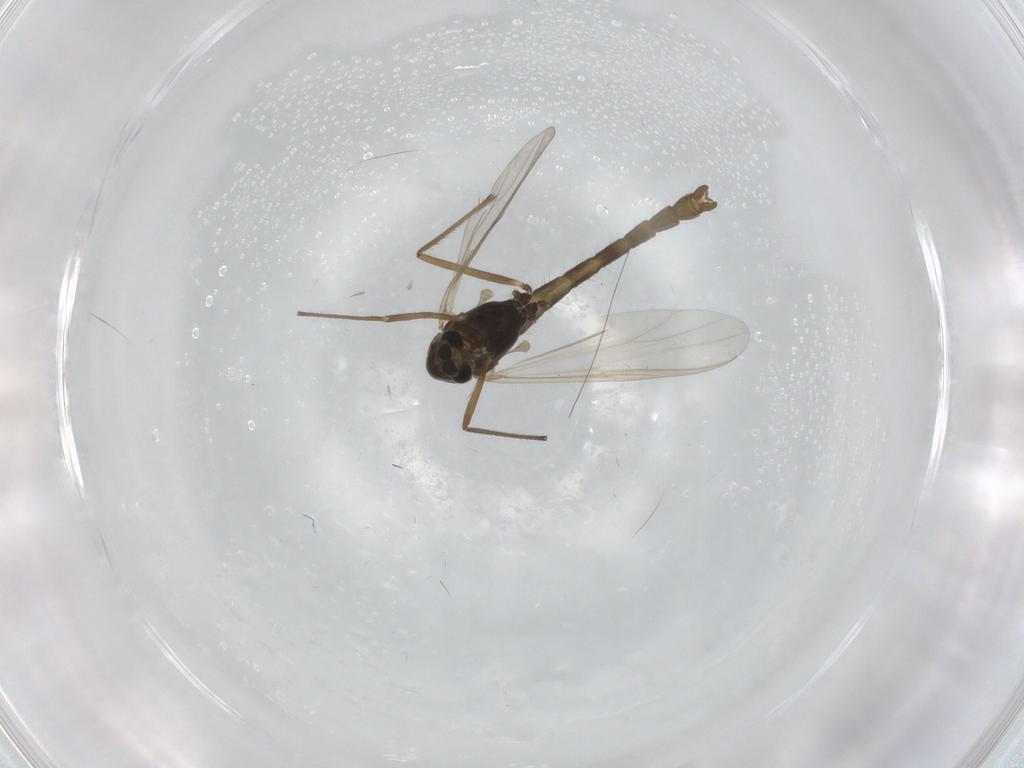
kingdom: Animalia
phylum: Arthropoda
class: Insecta
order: Diptera
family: Chironomidae
